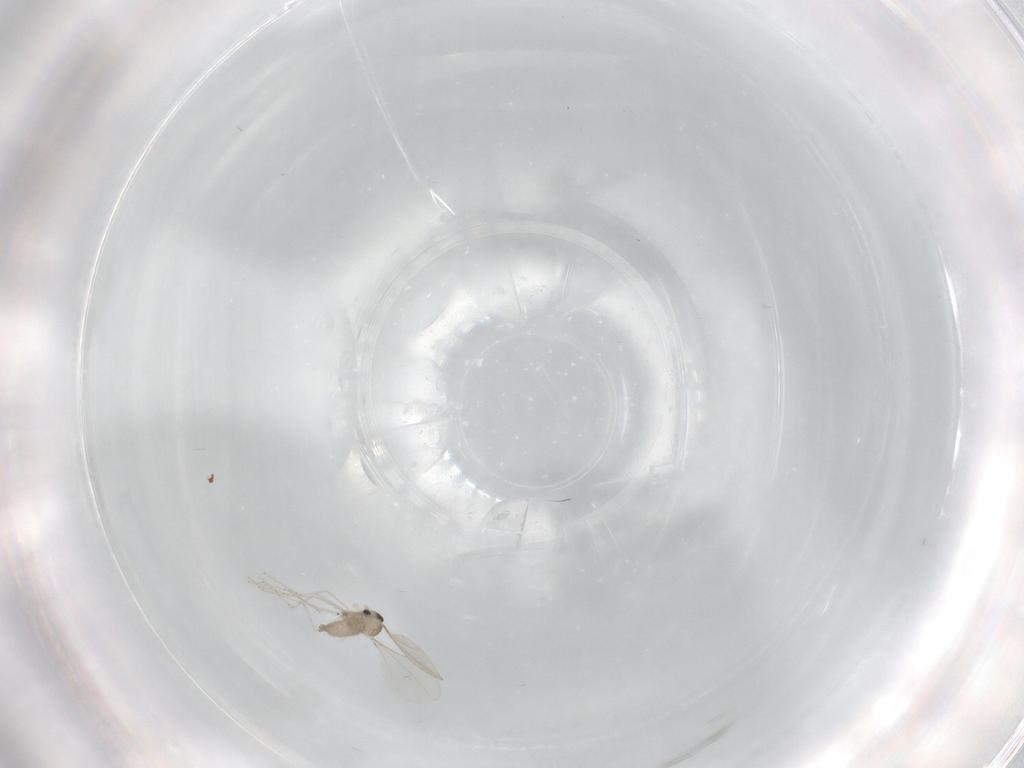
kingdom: Animalia
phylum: Arthropoda
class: Insecta
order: Diptera
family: Cecidomyiidae
